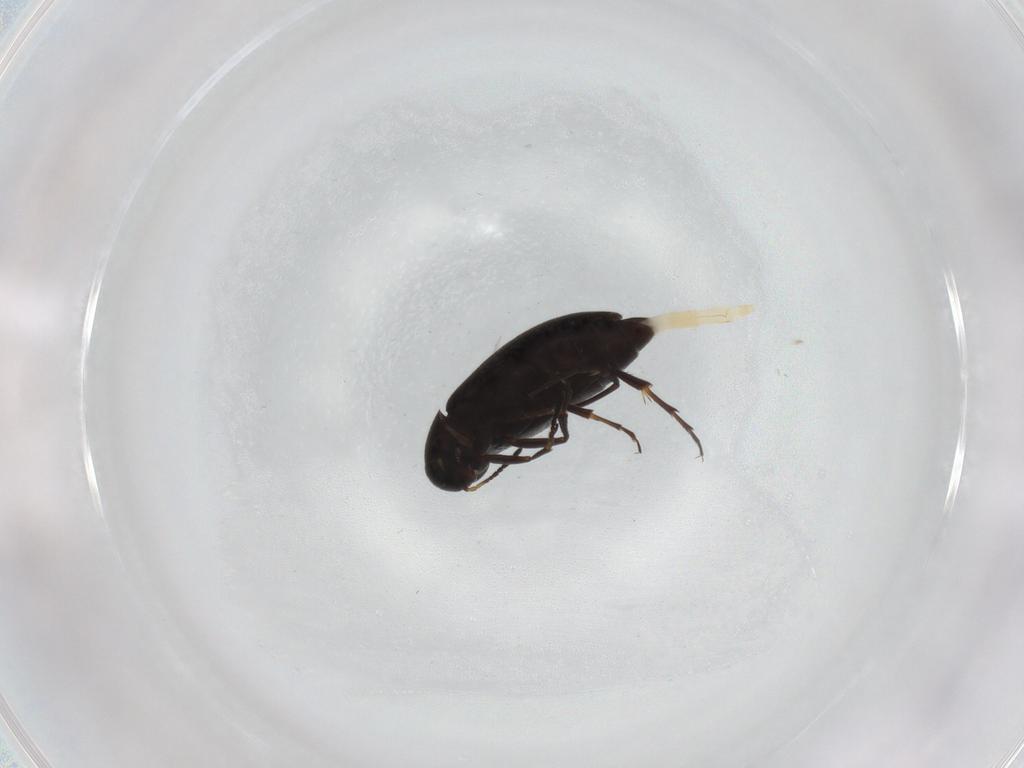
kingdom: Animalia
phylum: Arthropoda
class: Insecta
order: Coleoptera
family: Scraptiidae
